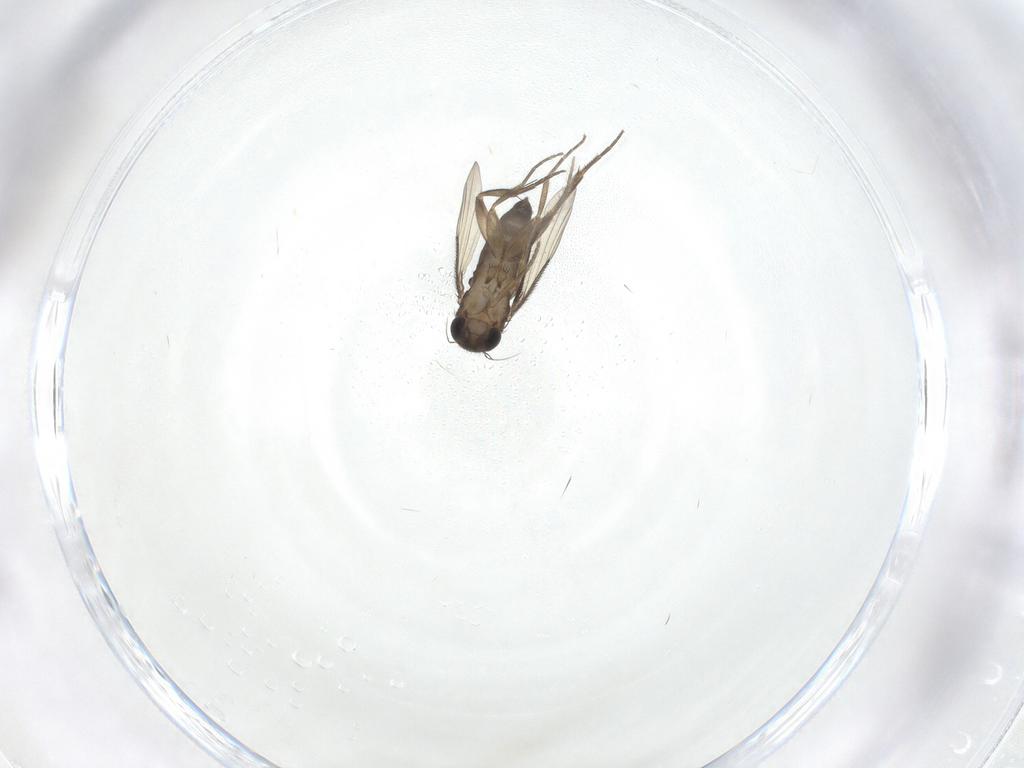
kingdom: Animalia
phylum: Arthropoda
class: Insecta
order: Diptera
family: Phoridae
